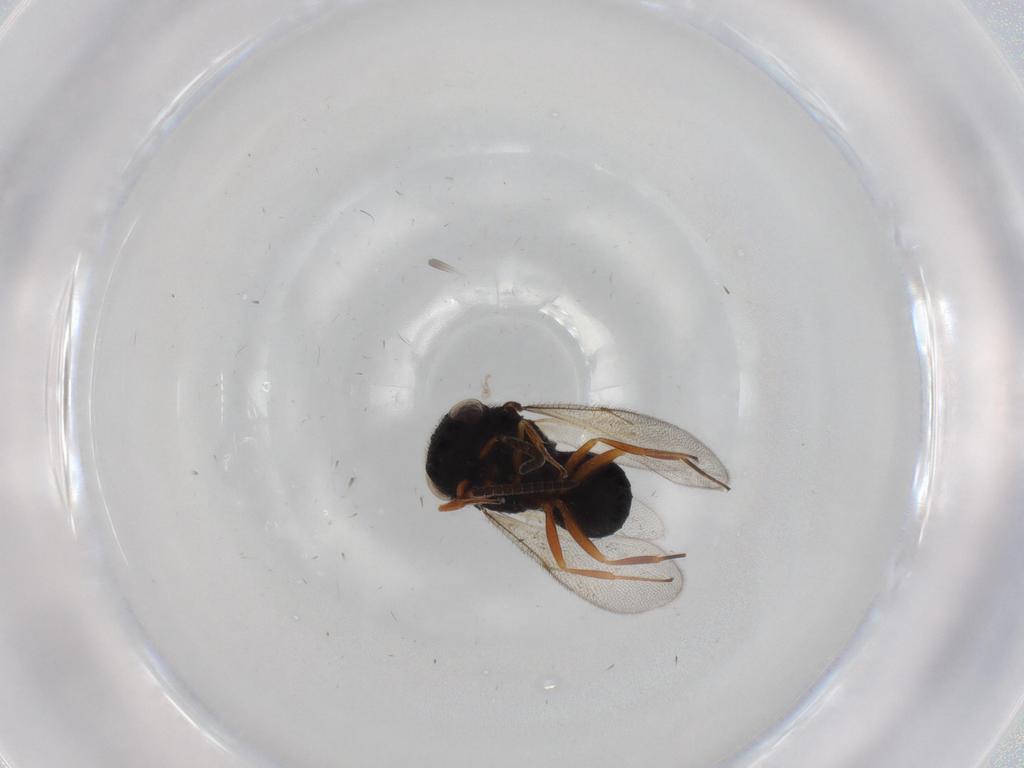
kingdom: Animalia
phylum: Arthropoda
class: Insecta
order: Hymenoptera
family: Scelionidae
